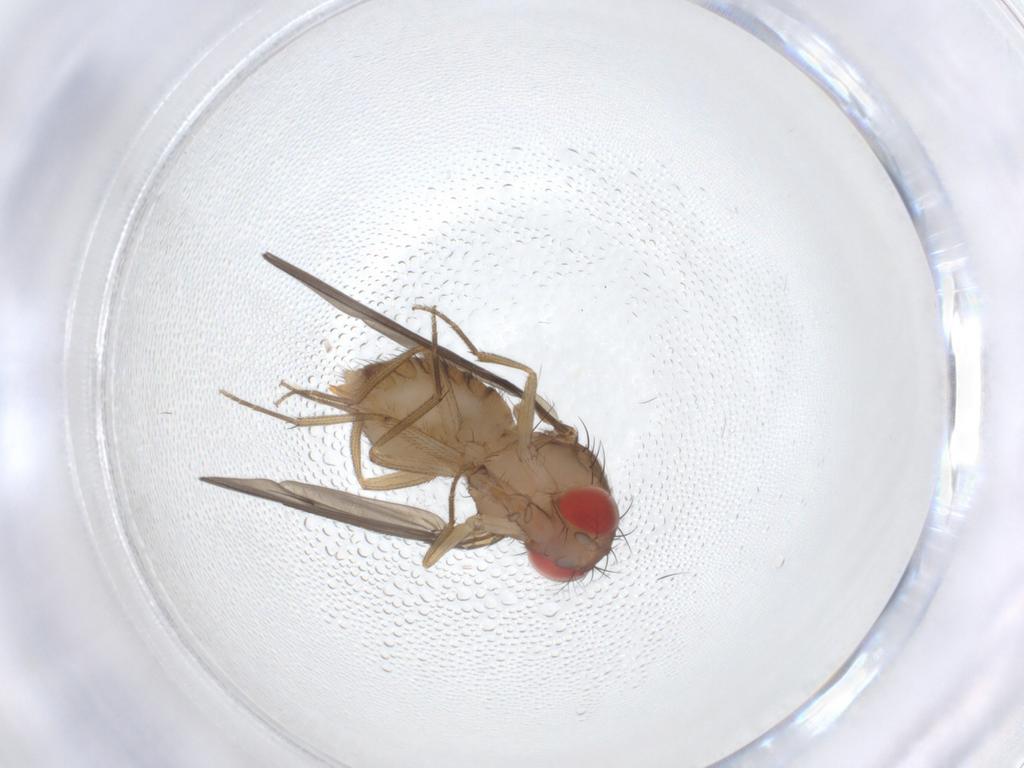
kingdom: Animalia
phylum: Arthropoda
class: Insecta
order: Diptera
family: Drosophilidae
